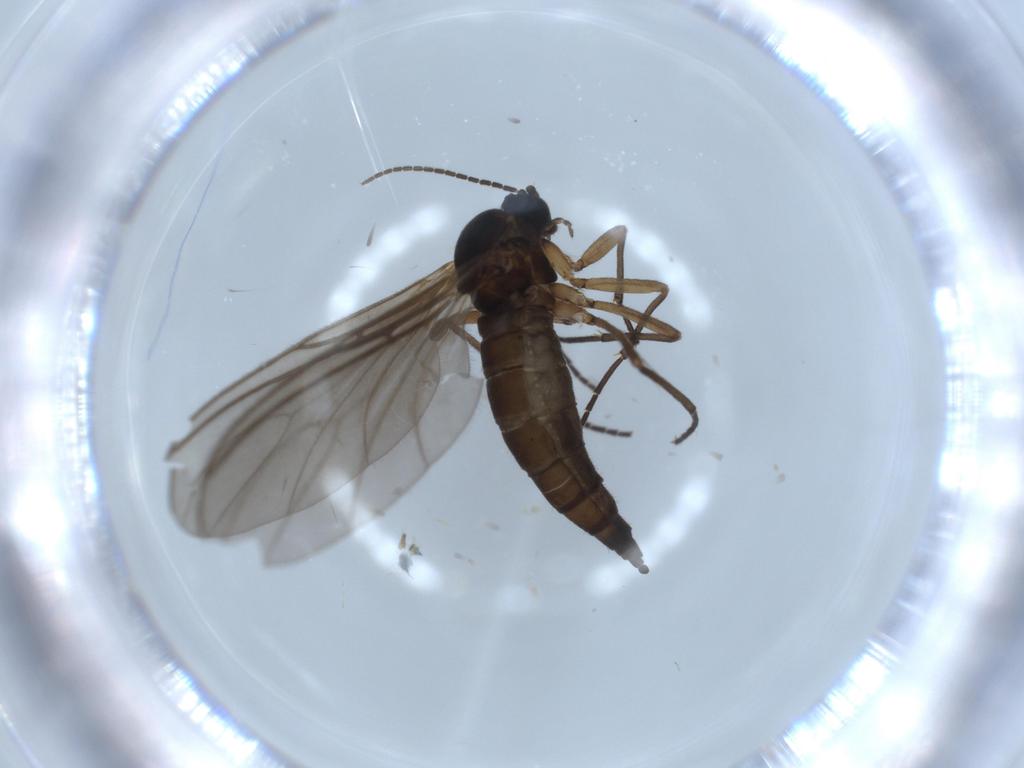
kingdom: Animalia
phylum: Arthropoda
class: Insecta
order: Diptera
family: Sciaridae
